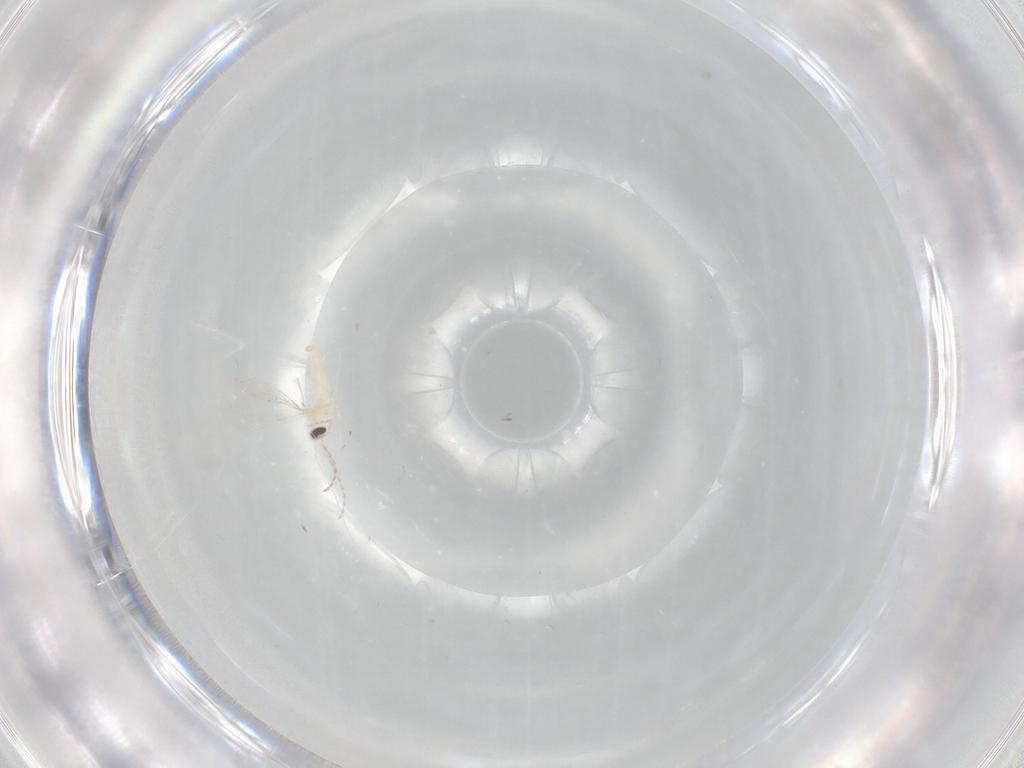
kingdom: Animalia
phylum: Arthropoda
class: Insecta
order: Diptera
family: Cecidomyiidae
